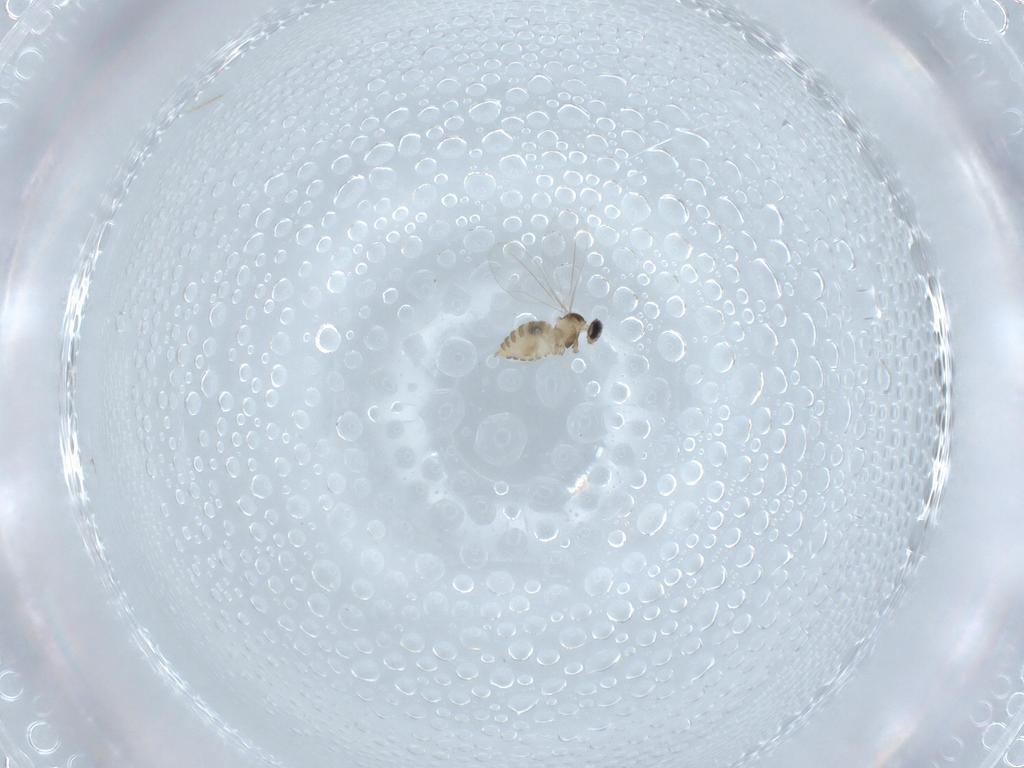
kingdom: Animalia
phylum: Arthropoda
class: Insecta
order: Diptera
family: Cecidomyiidae
